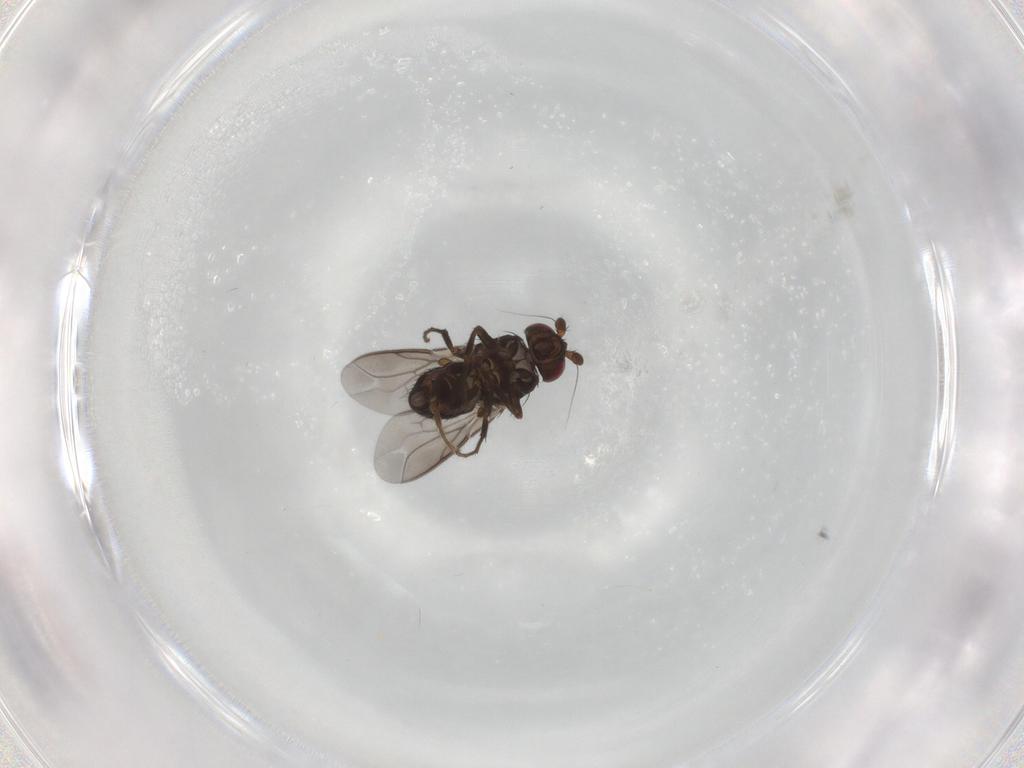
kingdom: Animalia
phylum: Arthropoda
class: Insecta
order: Diptera
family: Sphaeroceridae
